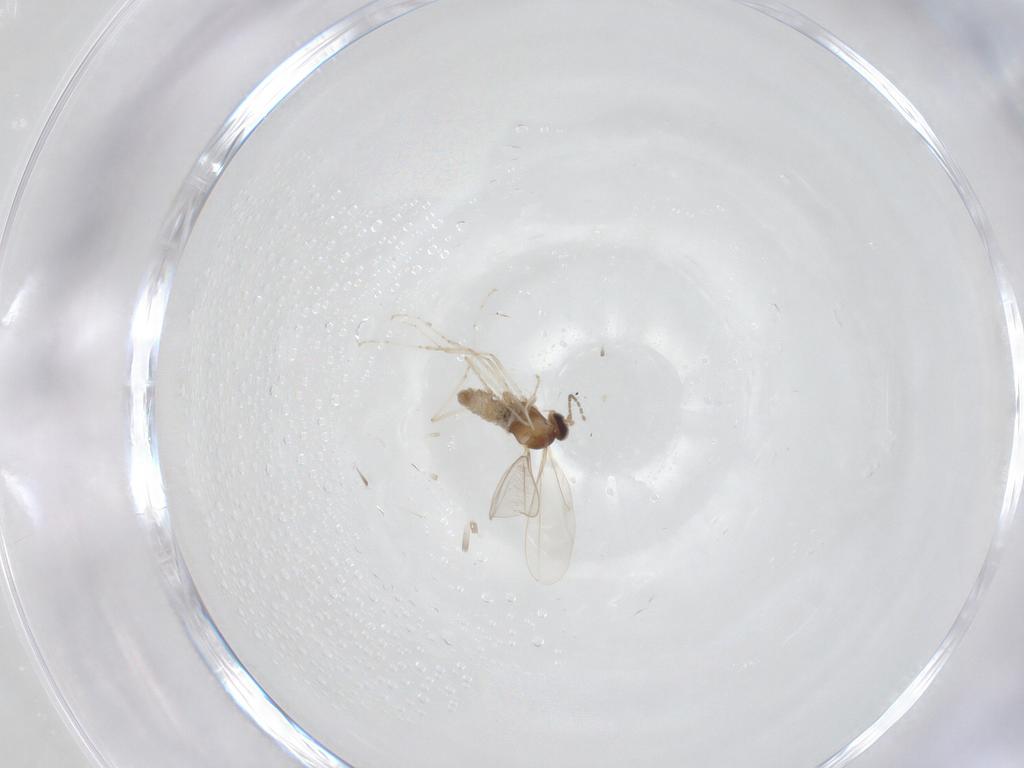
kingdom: Animalia
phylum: Arthropoda
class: Insecta
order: Diptera
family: Cecidomyiidae
